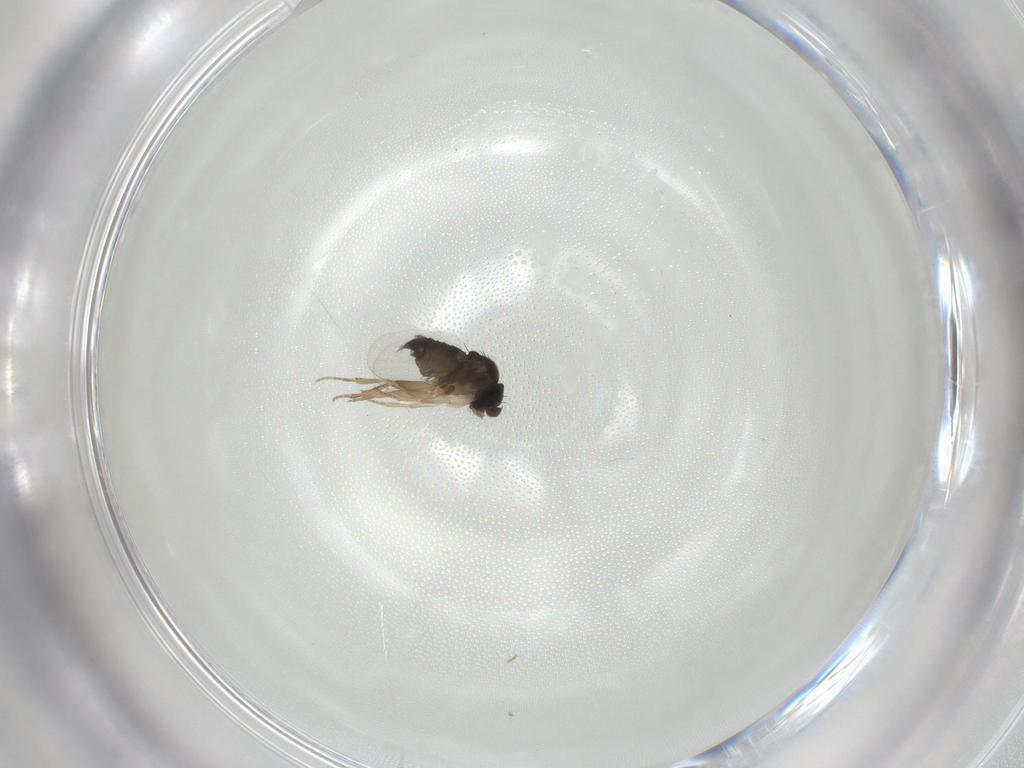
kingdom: Animalia
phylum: Arthropoda
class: Insecta
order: Diptera
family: Phoridae
